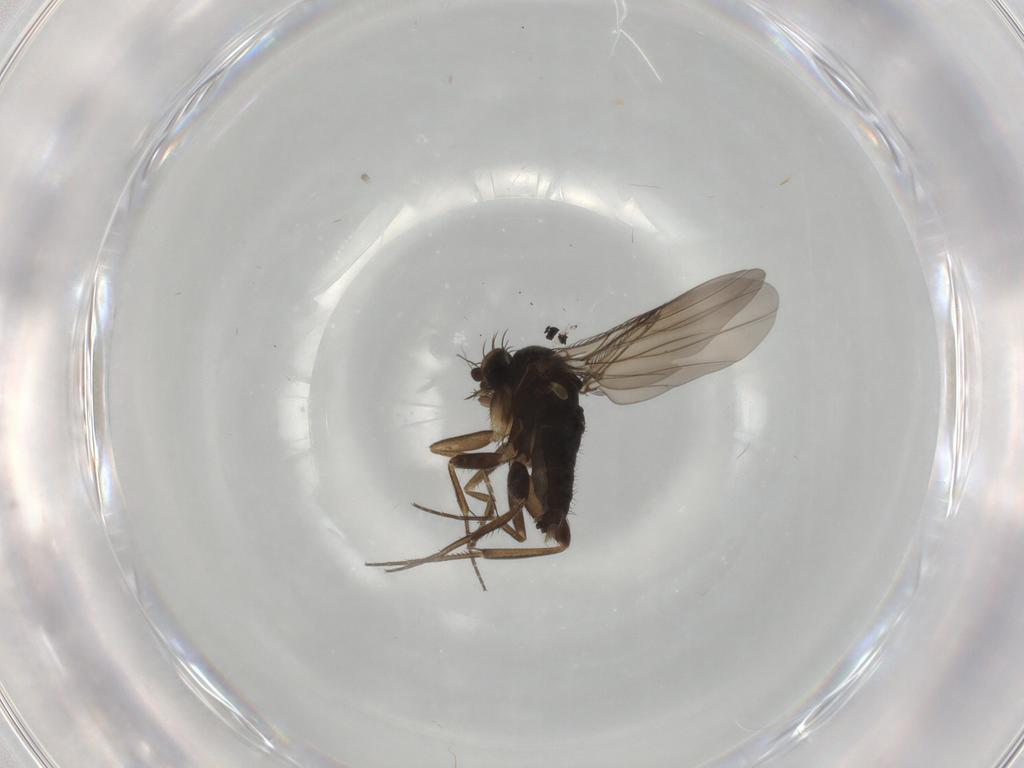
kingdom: Animalia
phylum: Arthropoda
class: Insecta
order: Diptera
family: Phoridae
